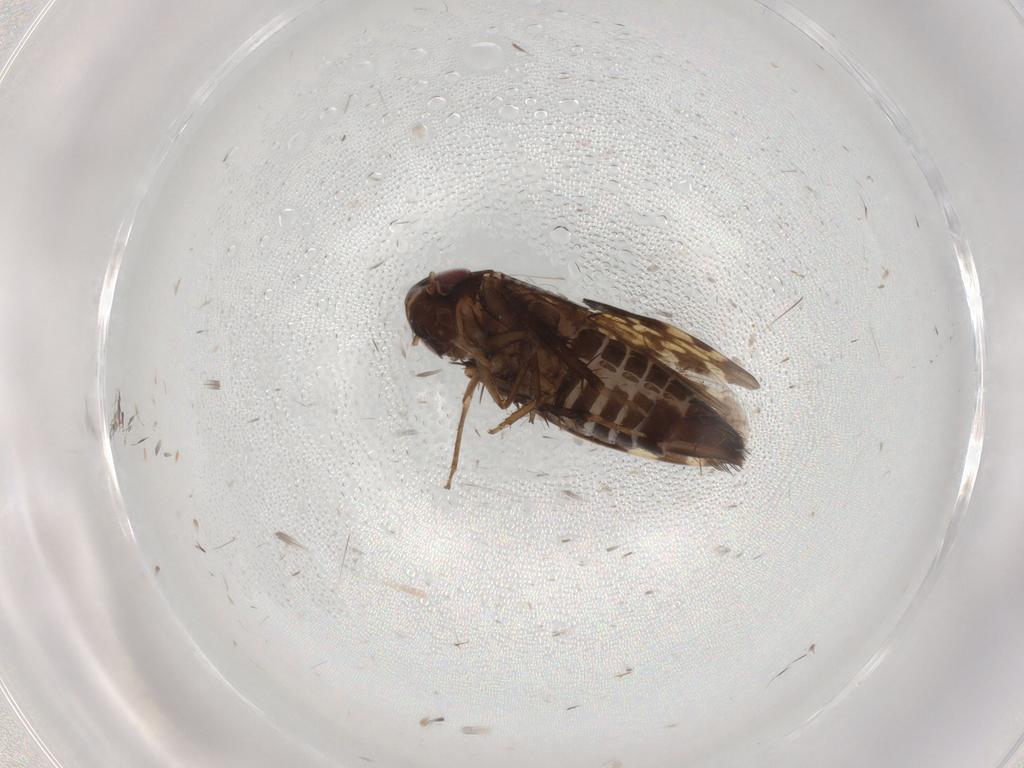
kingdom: Animalia
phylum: Arthropoda
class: Insecta
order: Hemiptera
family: Cicadellidae
